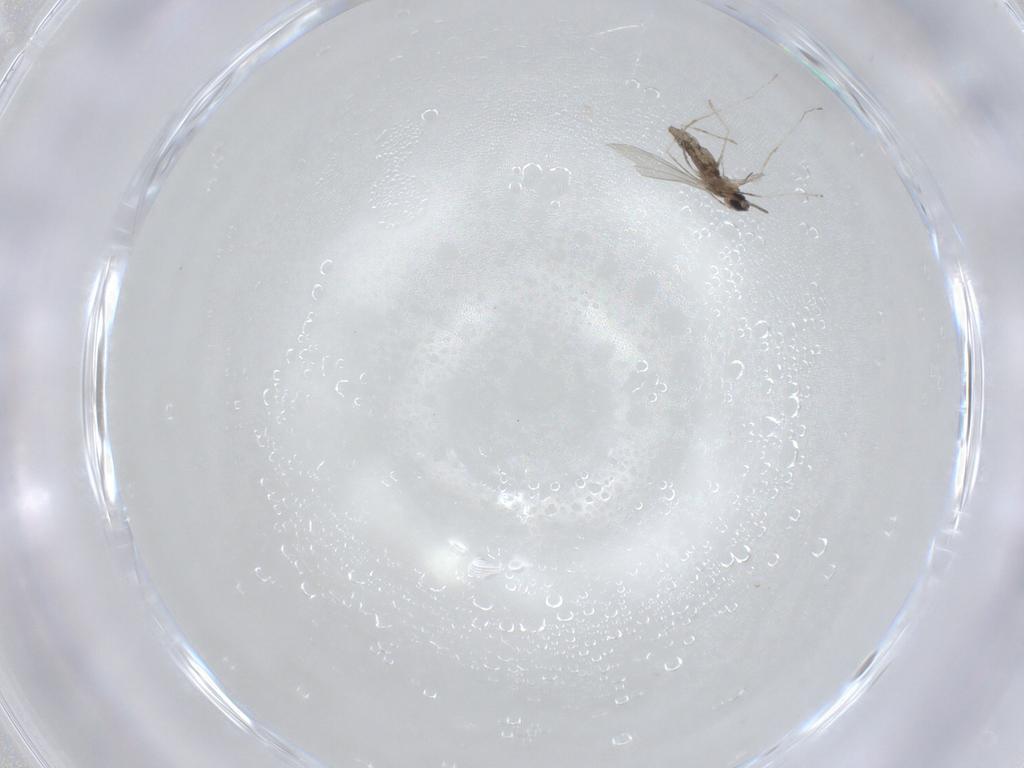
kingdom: Animalia
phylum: Arthropoda
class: Insecta
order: Diptera
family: Cecidomyiidae
